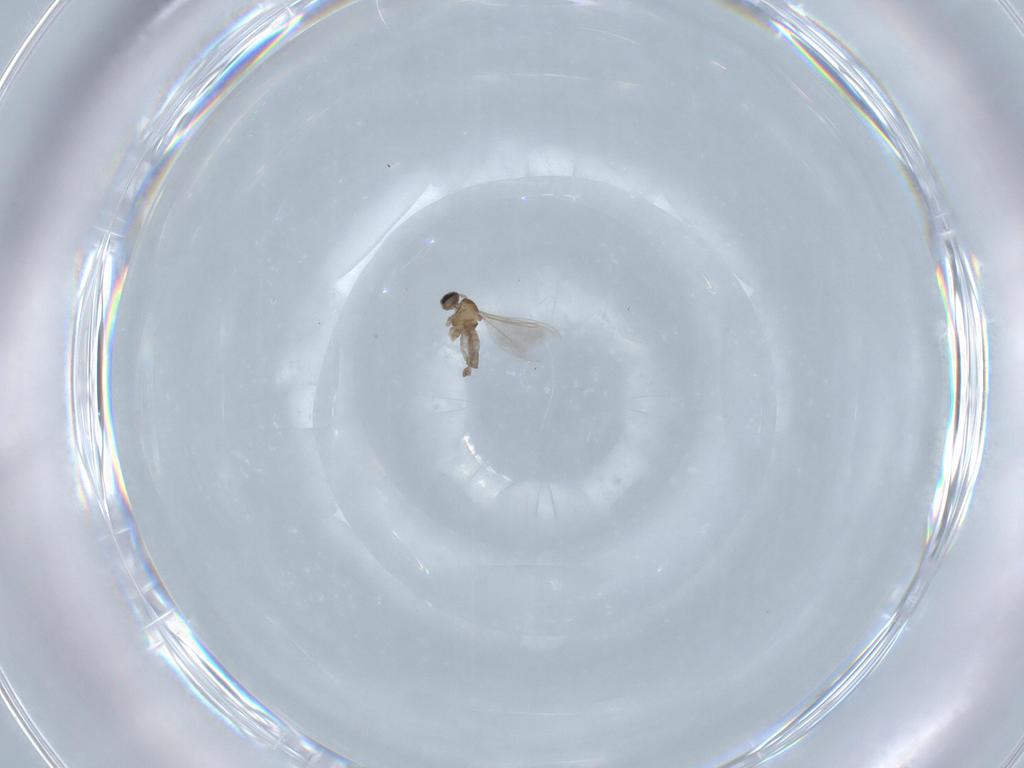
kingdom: Animalia
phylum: Arthropoda
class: Insecta
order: Diptera
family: Cecidomyiidae
